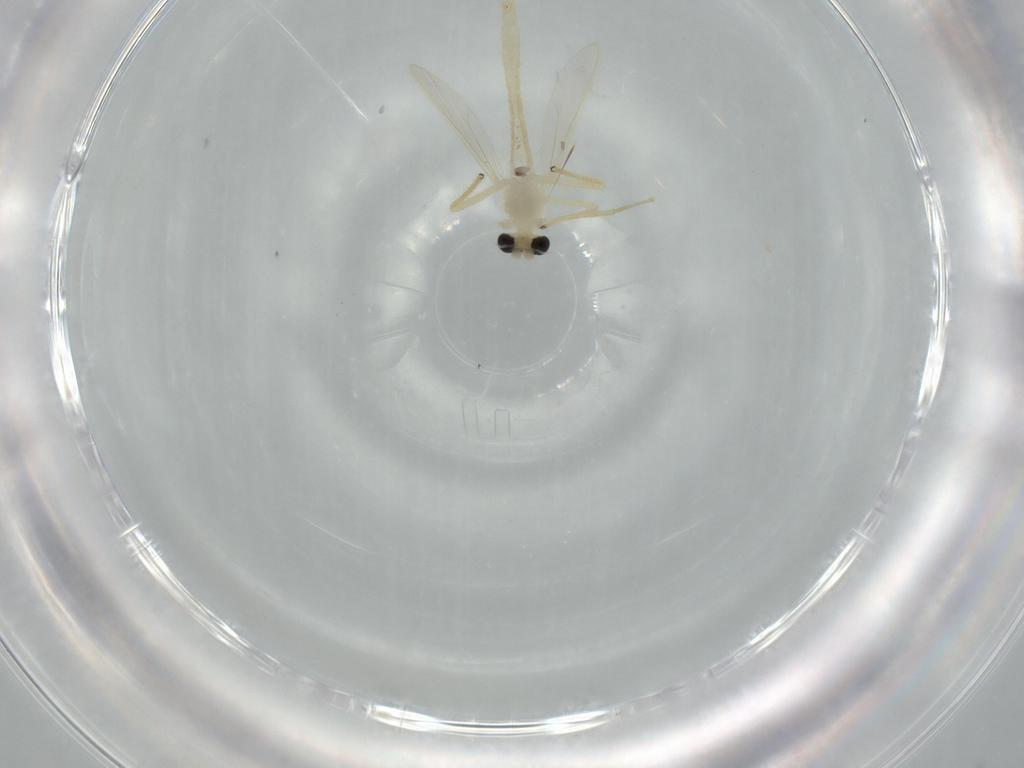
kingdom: Animalia
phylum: Arthropoda
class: Insecta
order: Diptera
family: Chironomidae
